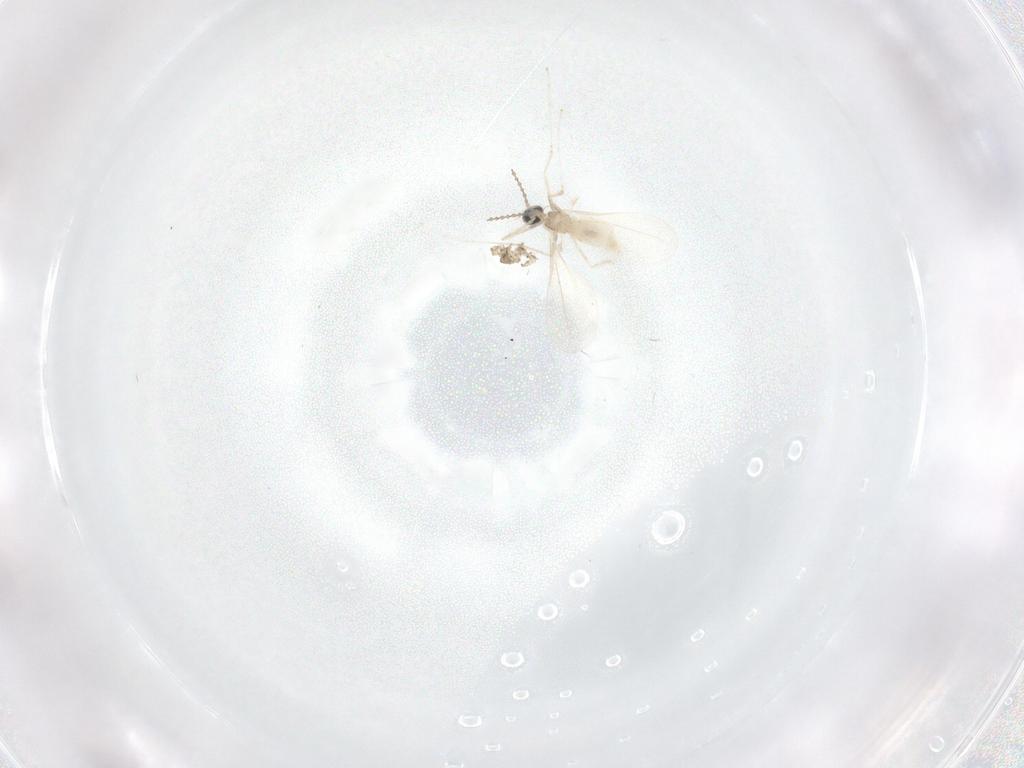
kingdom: Animalia
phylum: Arthropoda
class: Insecta
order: Diptera
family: Cecidomyiidae
